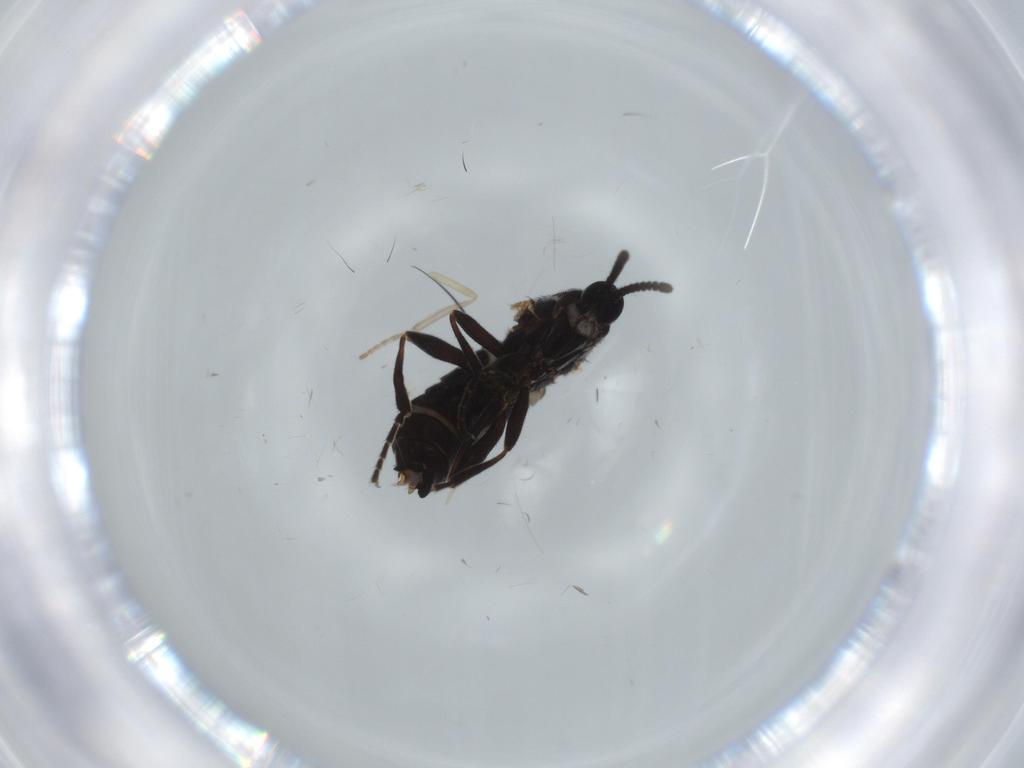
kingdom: Animalia
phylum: Arthropoda
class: Insecta
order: Diptera
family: Scatopsidae
